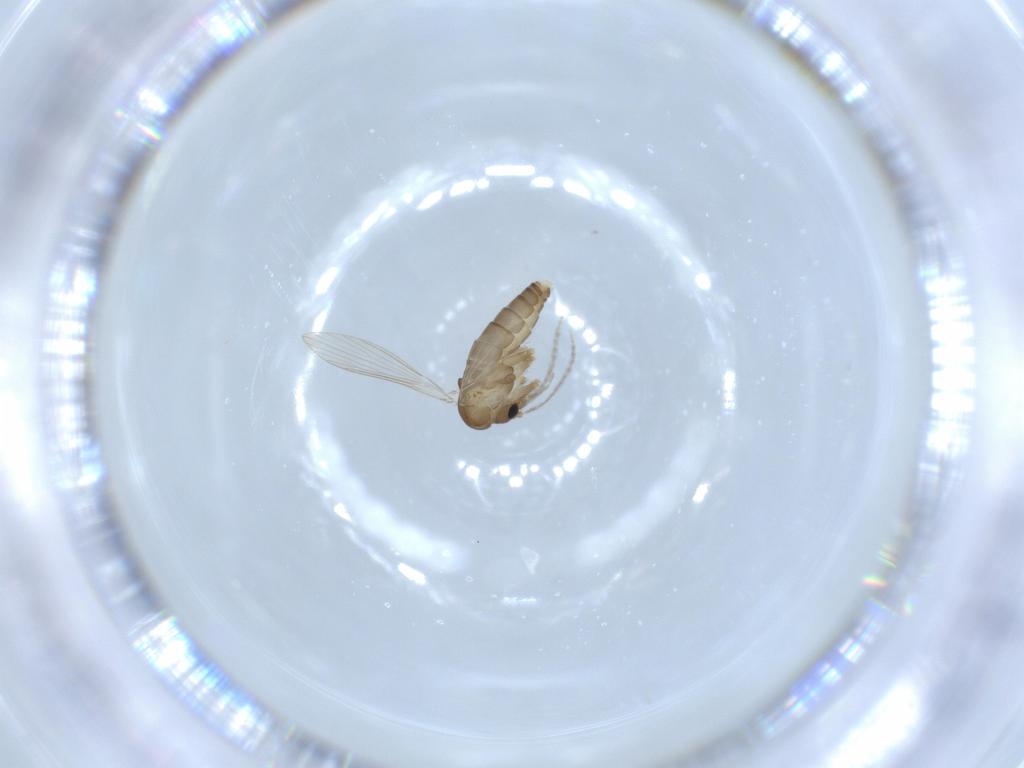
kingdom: Animalia
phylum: Arthropoda
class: Insecta
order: Diptera
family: Psychodidae
